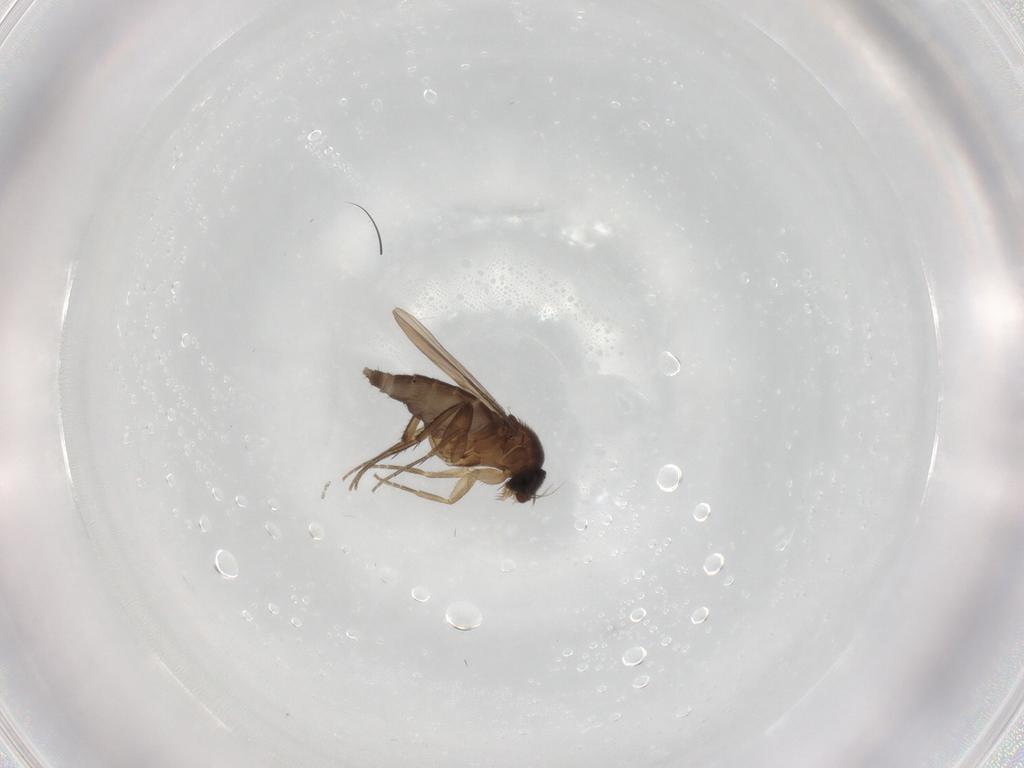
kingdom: Animalia
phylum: Arthropoda
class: Insecta
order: Diptera
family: Phoridae
